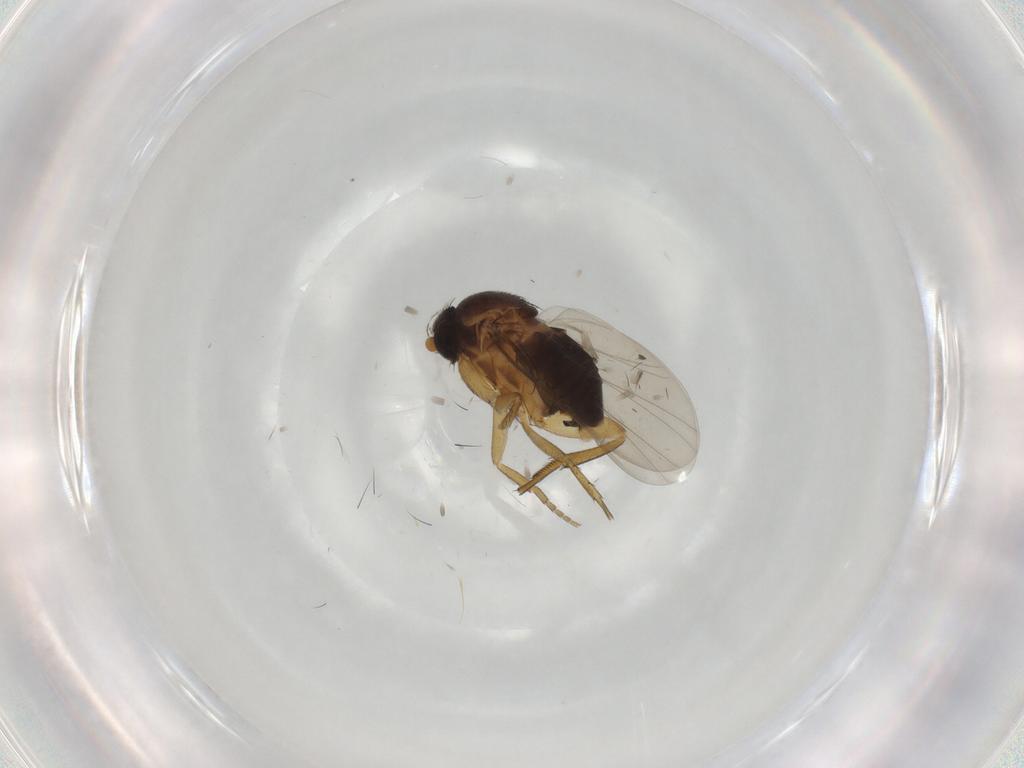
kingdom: Animalia
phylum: Arthropoda
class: Insecta
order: Diptera
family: Phoridae
